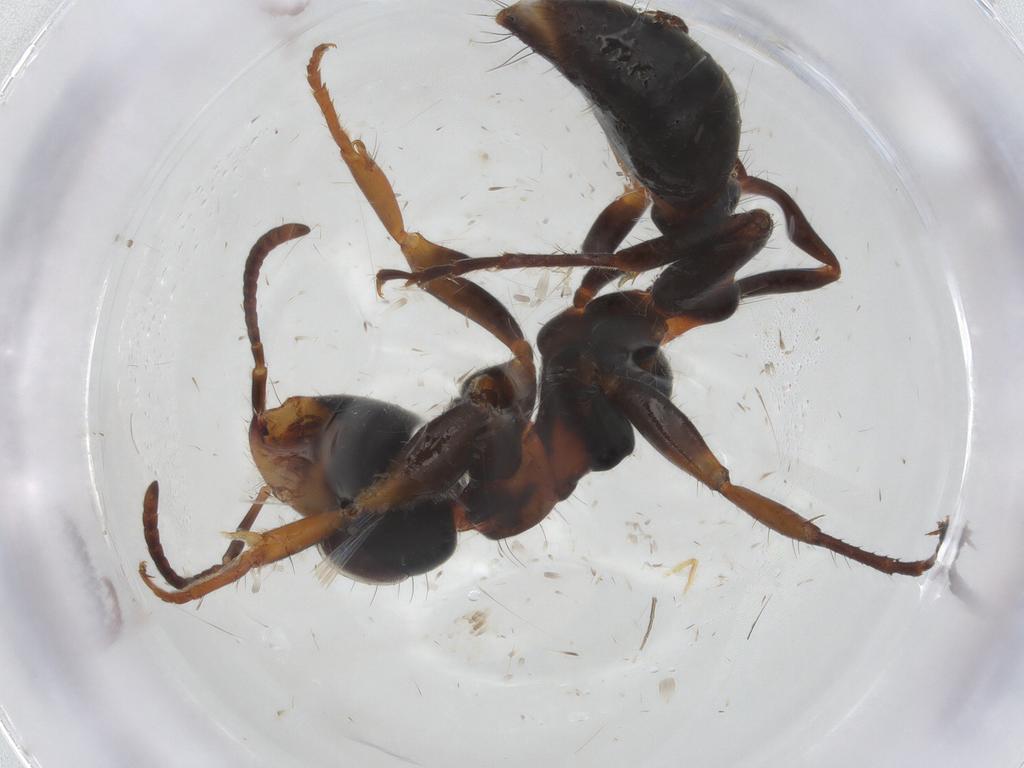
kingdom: Animalia
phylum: Arthropoda
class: Insecta
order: Hymenoptera
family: Formicidae
